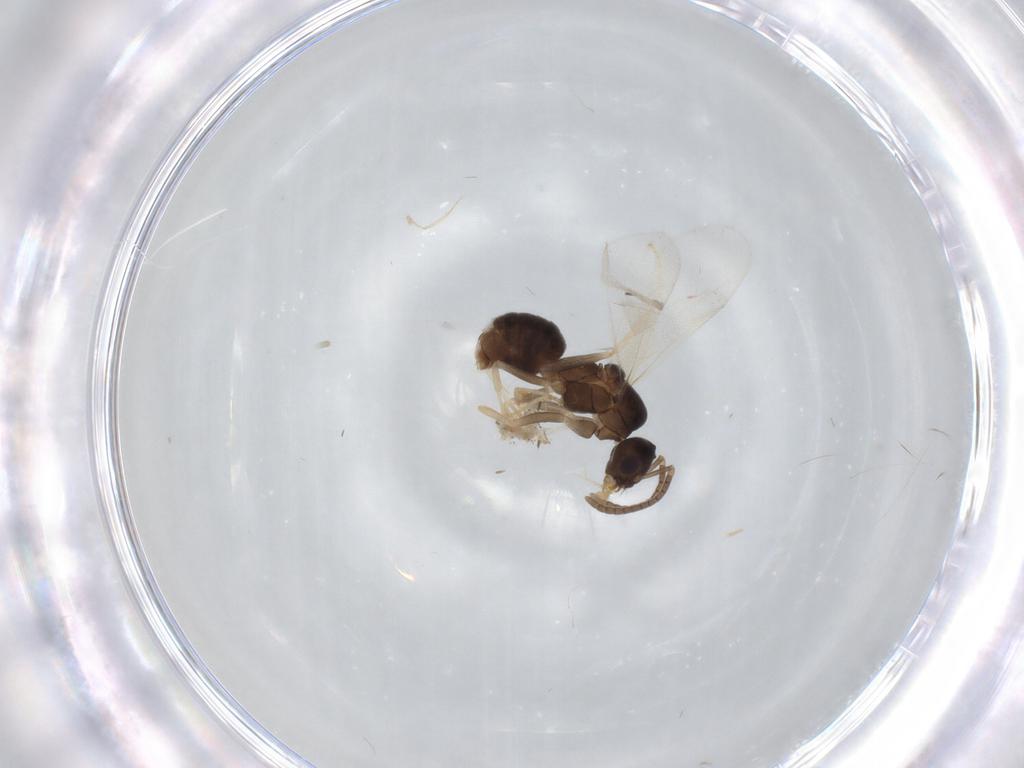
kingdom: Animalia
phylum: Arthropoda
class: Insecta
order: Hymenoptera
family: Formicidae
